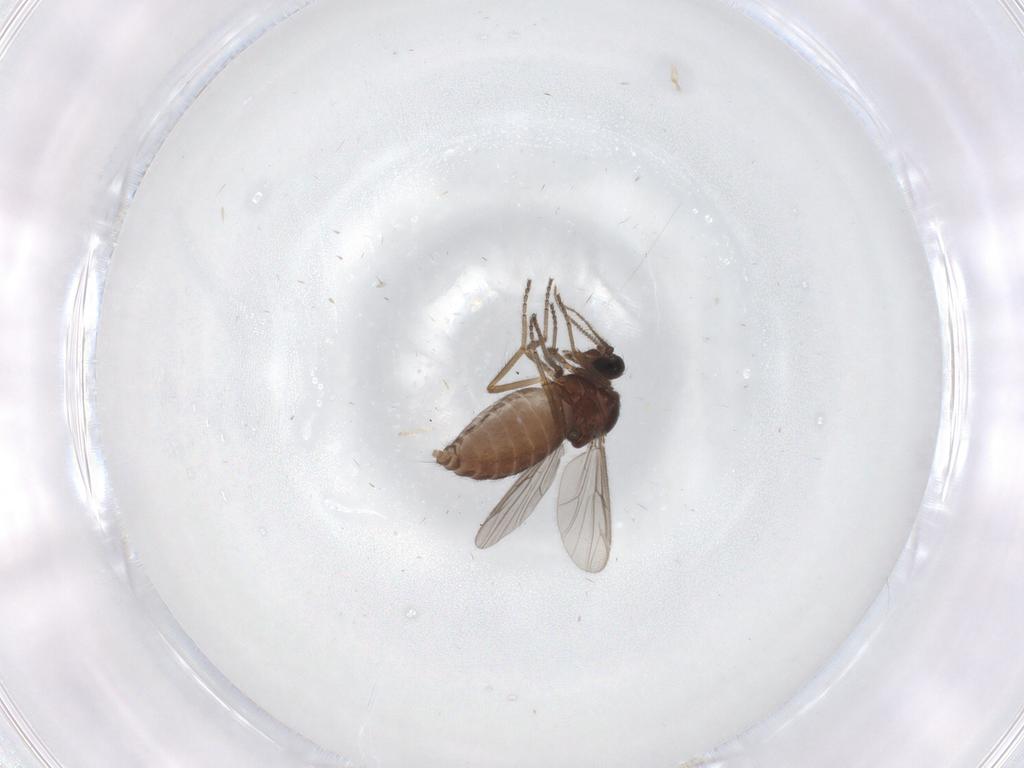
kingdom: Animalia
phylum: Arthropoda
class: Insecta
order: Diptera
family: Ceratopogonidae
